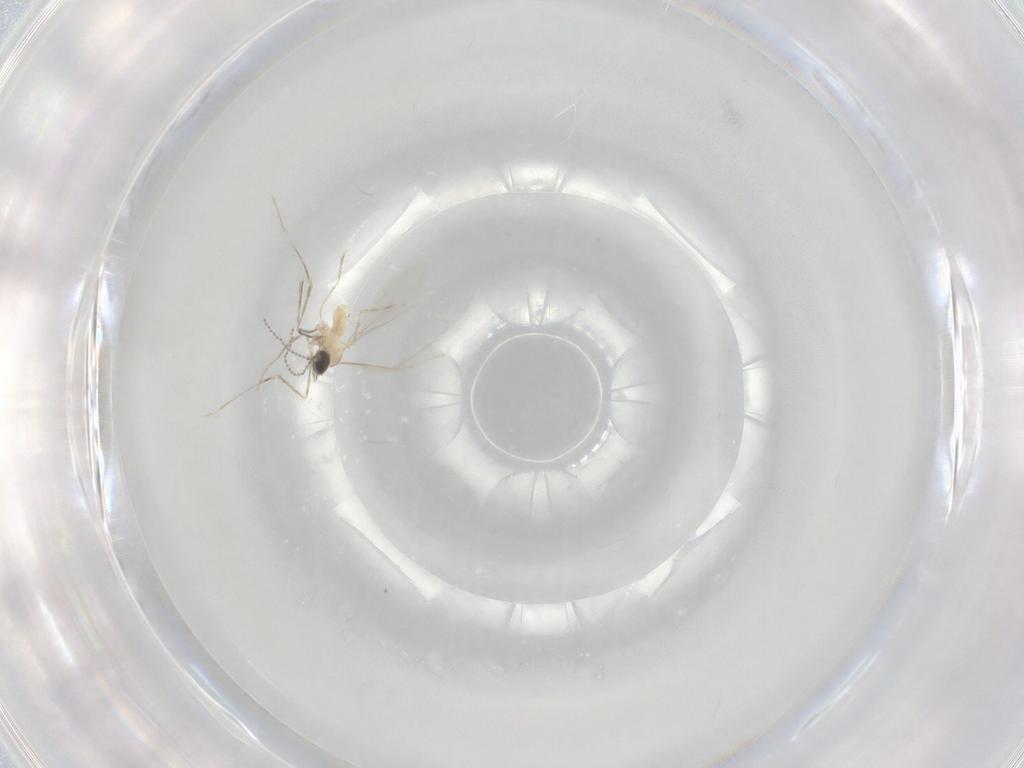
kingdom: Animalia
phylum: Arthropoda
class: Insecta
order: Diptera
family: Cecidomyiidae
